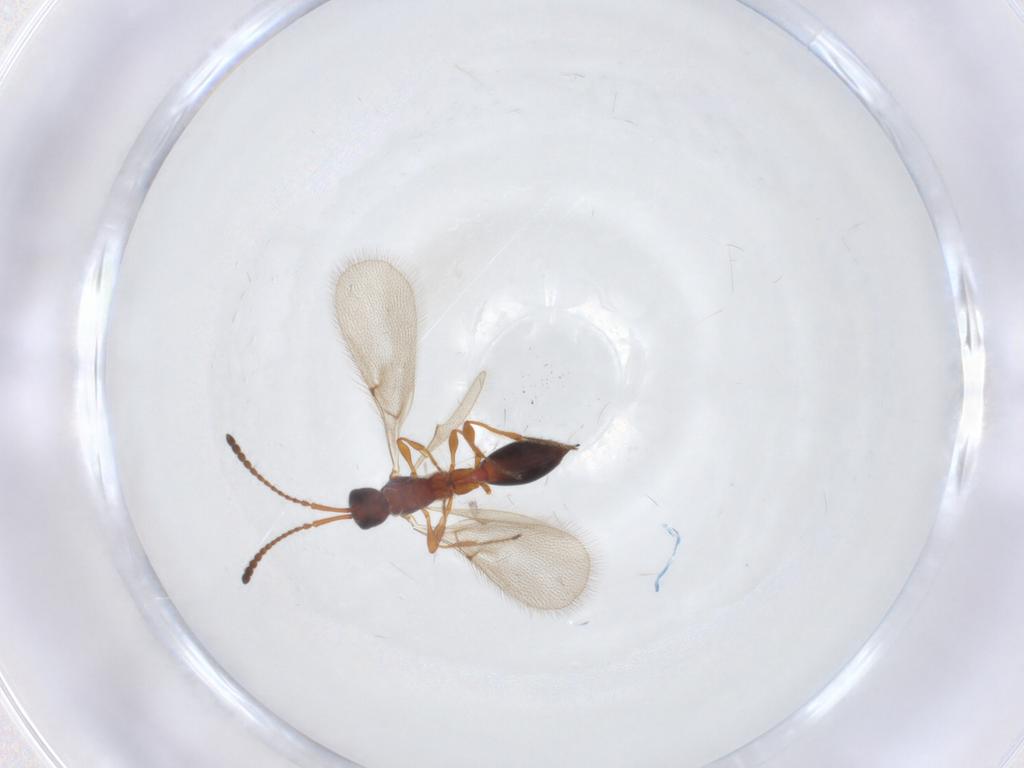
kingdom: Animalia
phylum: Arthropoda
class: Insecta
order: Hymenoptera
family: Diapriidae
